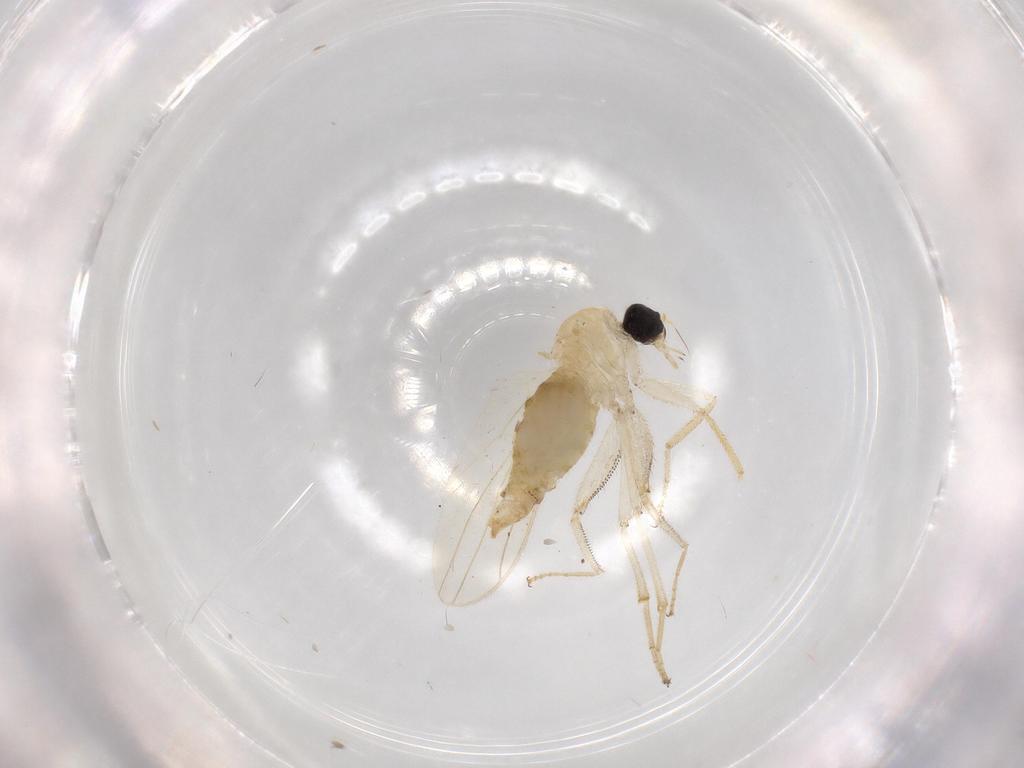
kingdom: Animalia
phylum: Arthropoda
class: Insecta
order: Diptera
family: Hybotidae
